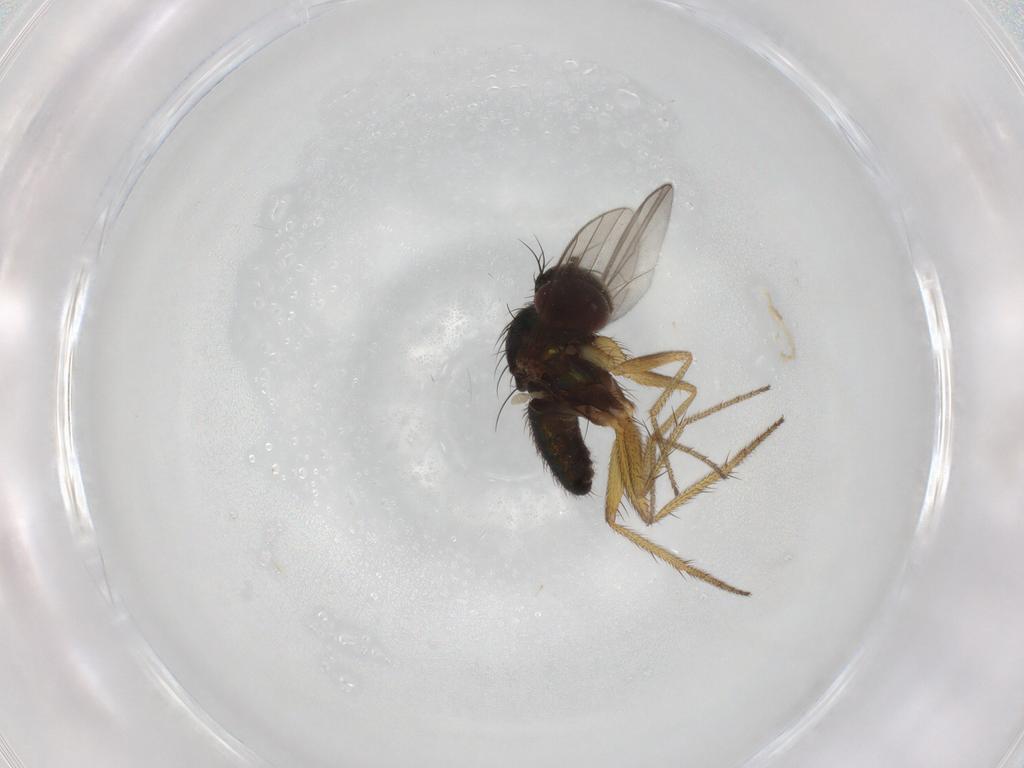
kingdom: Animalia
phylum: Arthropoda
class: Insecta
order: Diptera
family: Dolichopodidae
